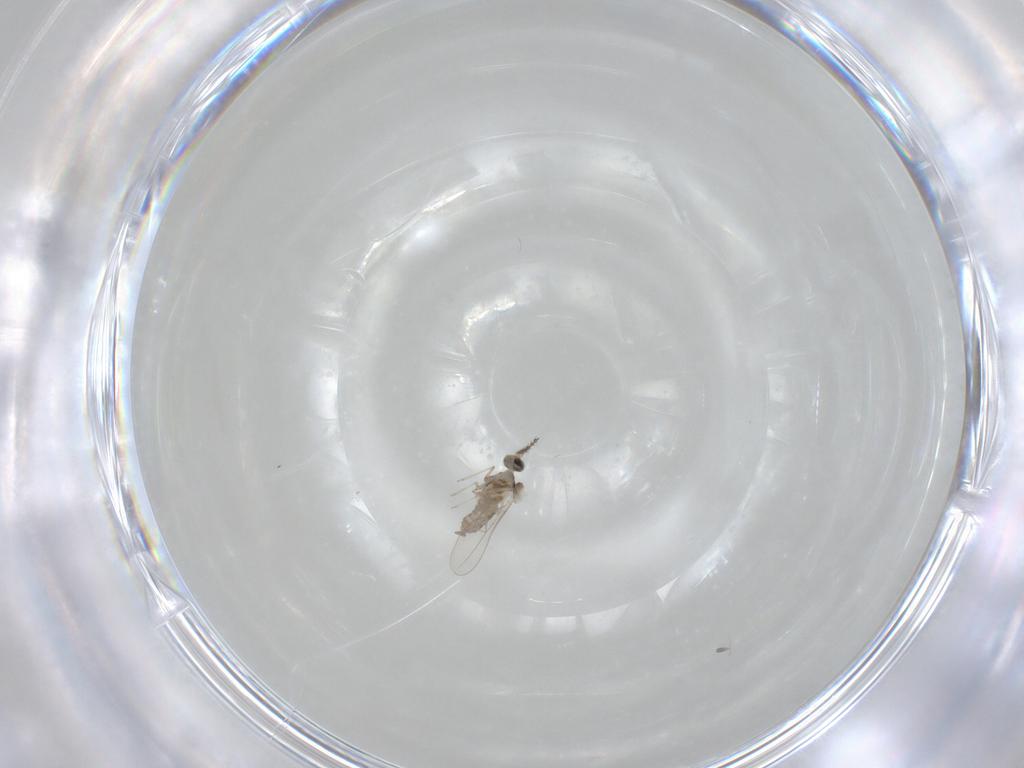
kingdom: Animalia
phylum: Arthropoda
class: Insecta
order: Diptera
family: Cecidomyiidae
